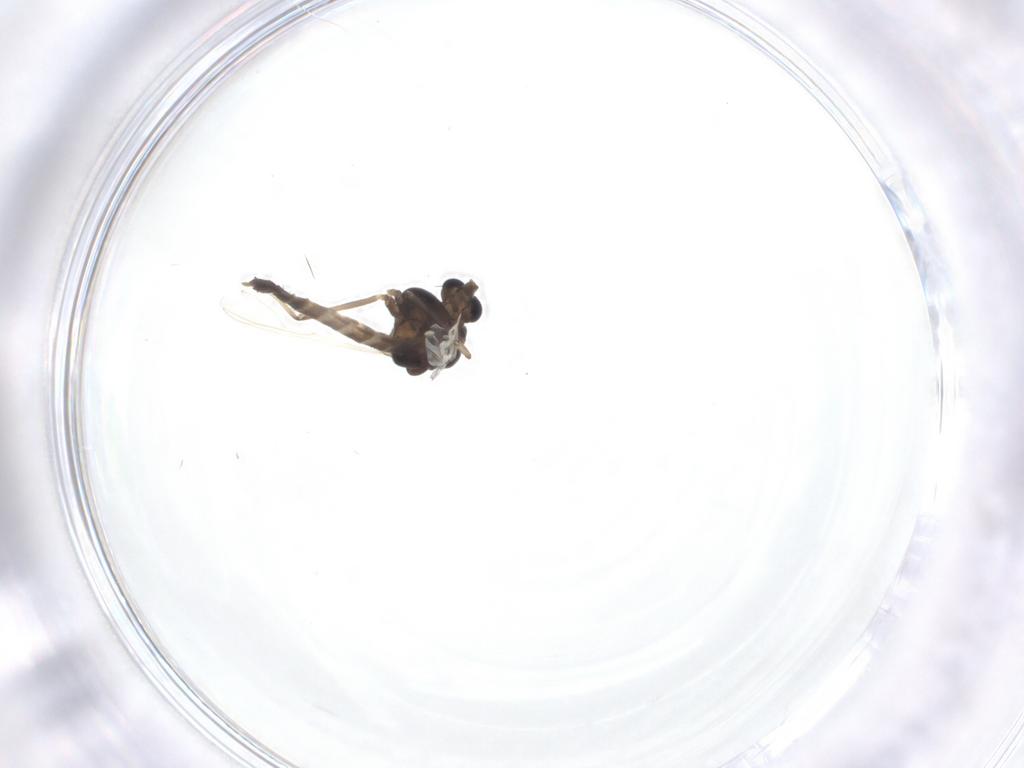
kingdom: Animalia
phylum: Arthropoda
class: Insecta
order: Diptera
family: Chironomidae
